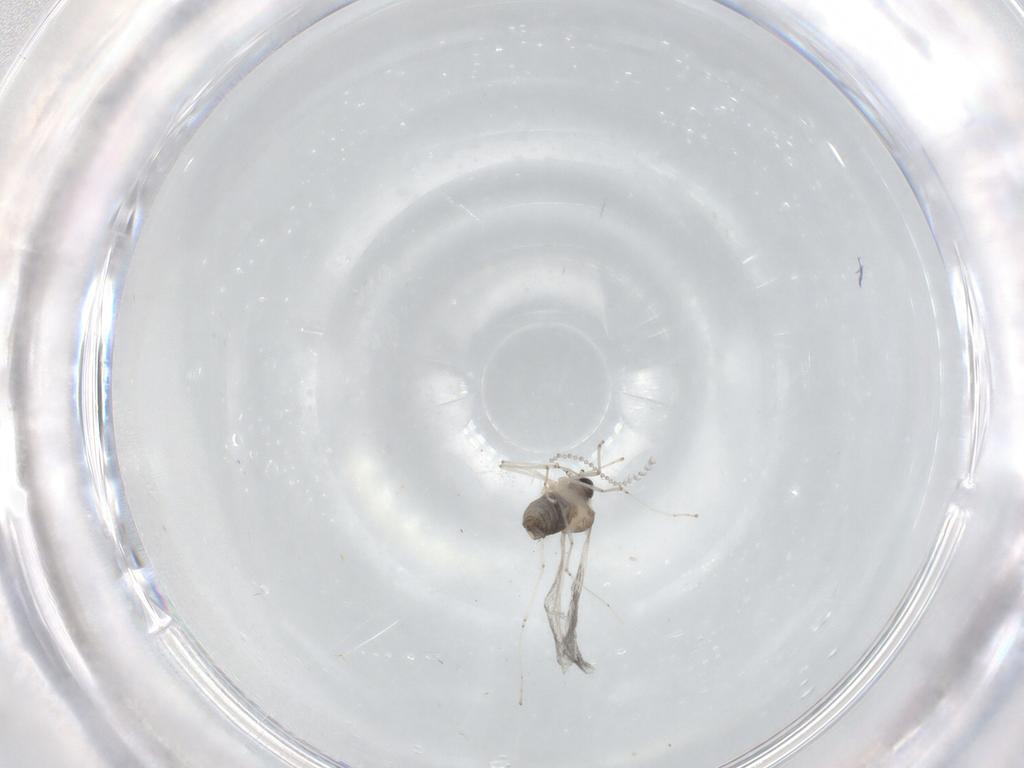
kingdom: Animalia
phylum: Arthropoda
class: Insecta
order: Diptera
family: Cecidomyiidae
